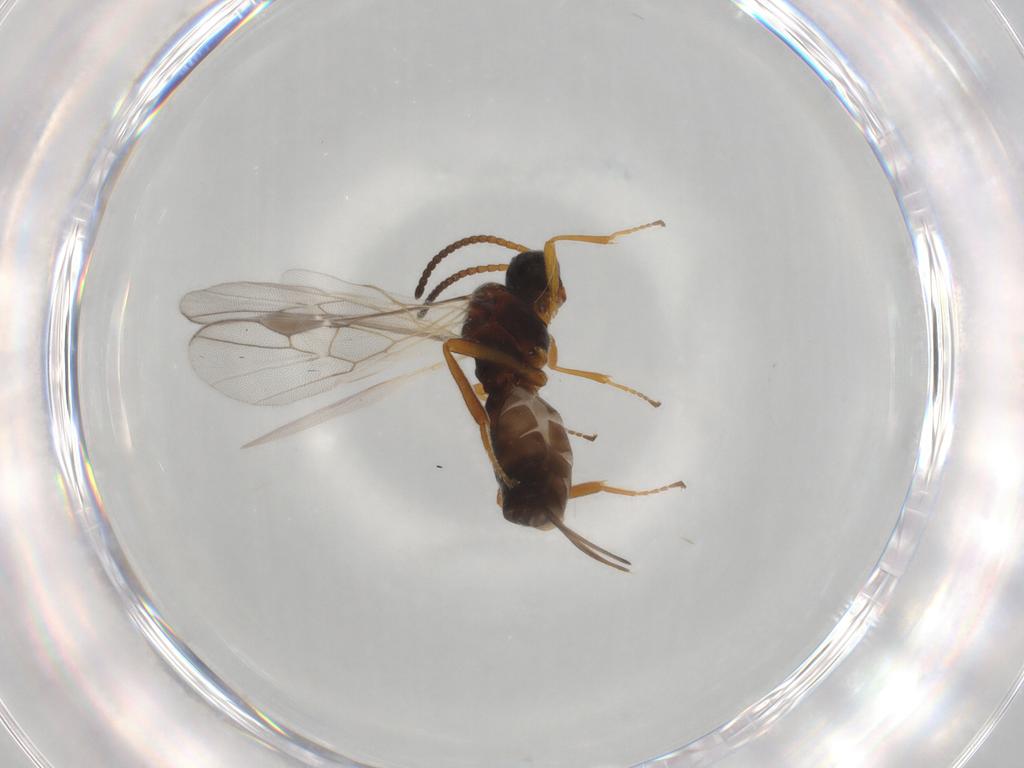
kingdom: Animalia
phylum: Arthropoda
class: Insecta
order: Hymenoptera
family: Braconidae
